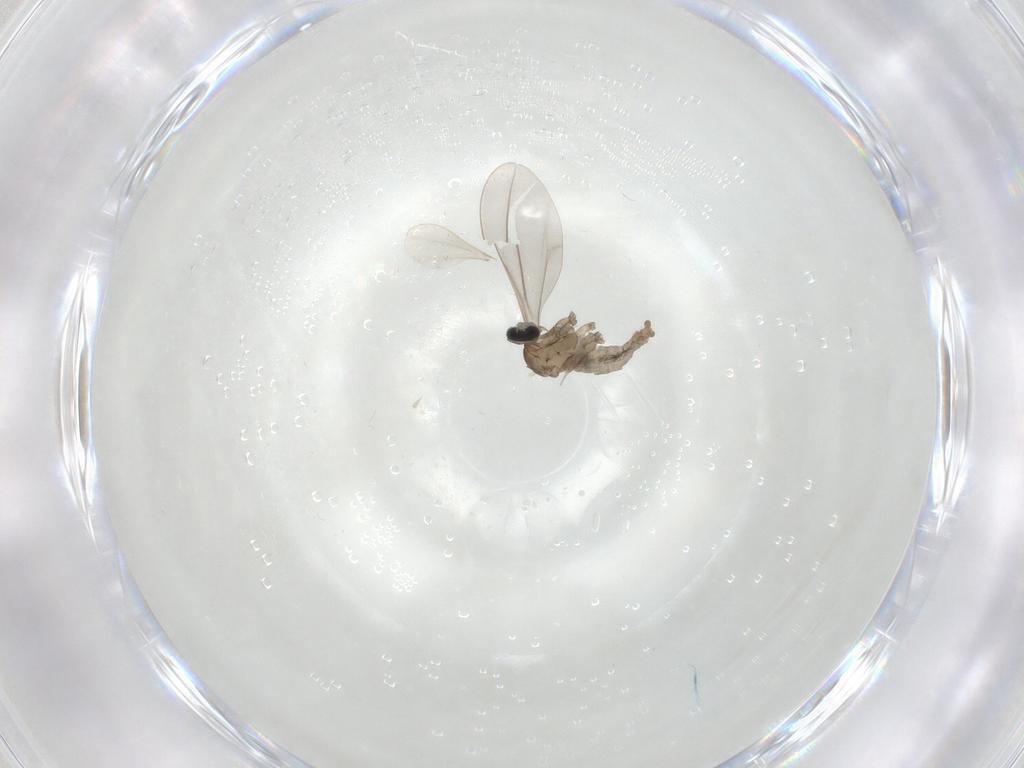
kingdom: Animalia
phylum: Arthropoda
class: Insecta
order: Diptera
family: Cecidomyiidae
